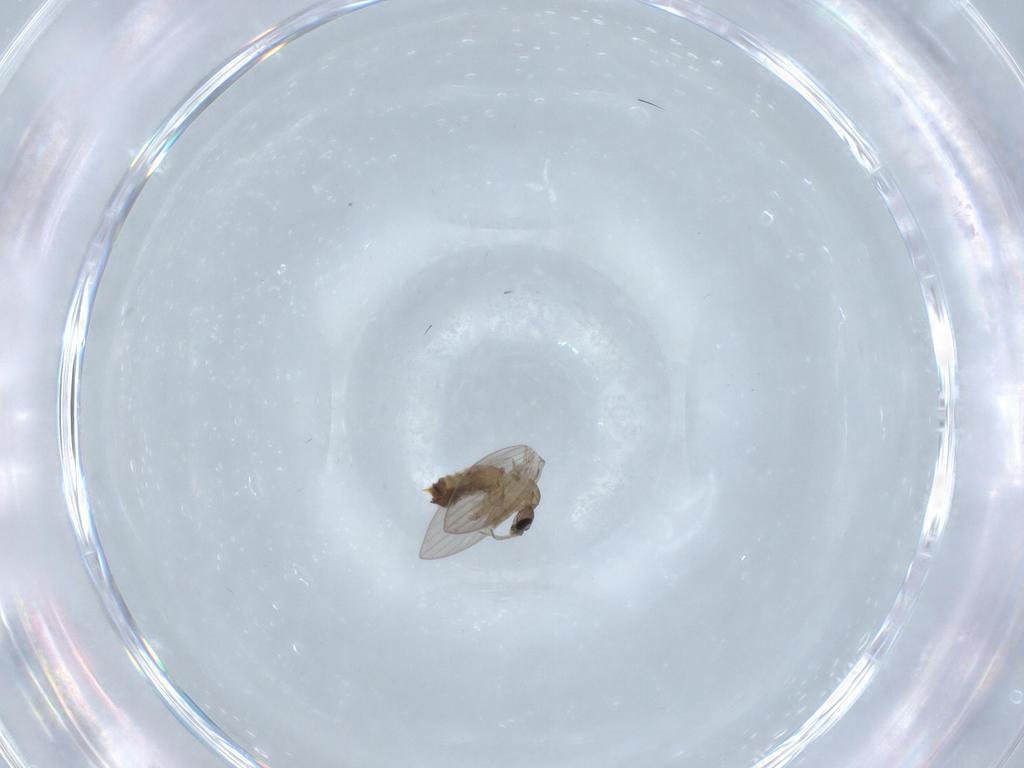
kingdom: Animalia
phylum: Arthropoda
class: Insecta
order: Diptera
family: Psychodidae
